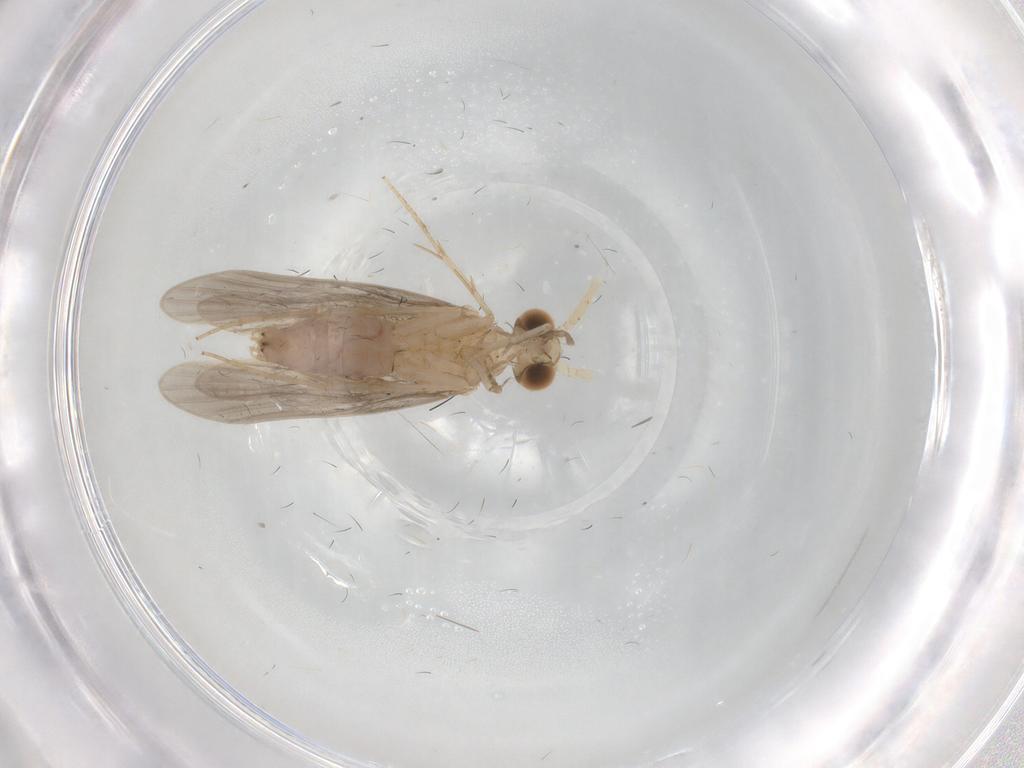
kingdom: Animalia
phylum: Arthropoda
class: Insecta
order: Trichoptera
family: Polycentropodidae
